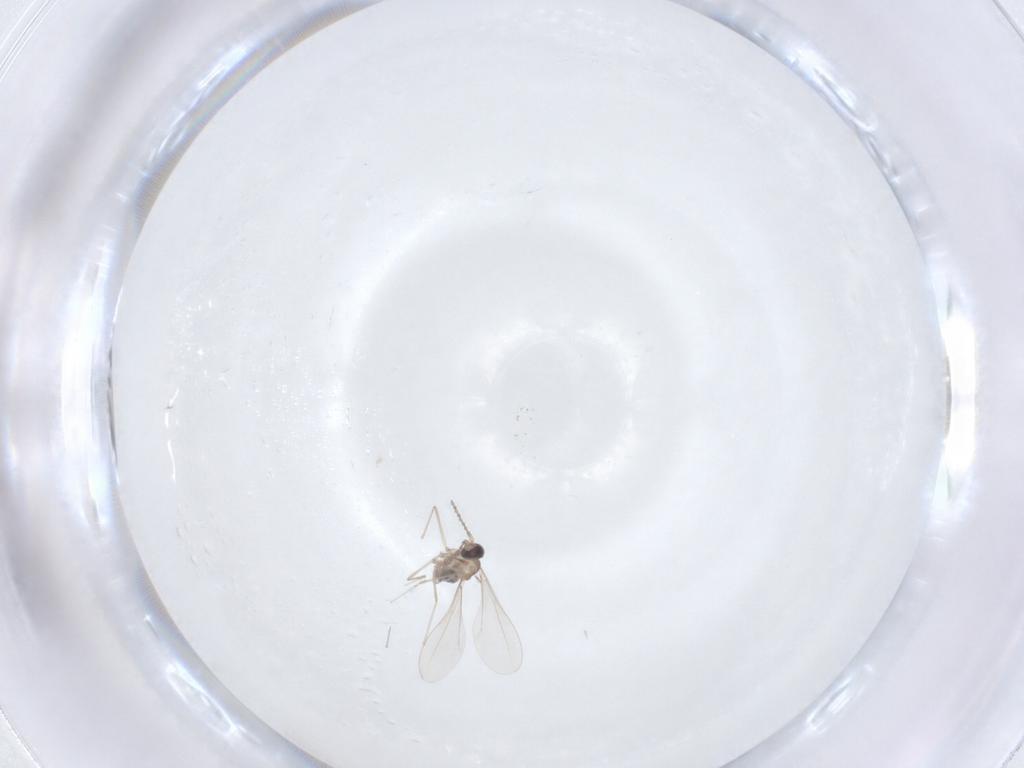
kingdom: Animalia
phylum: Arthropoda
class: Insecta
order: Diptera
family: Cecidomyiidae
